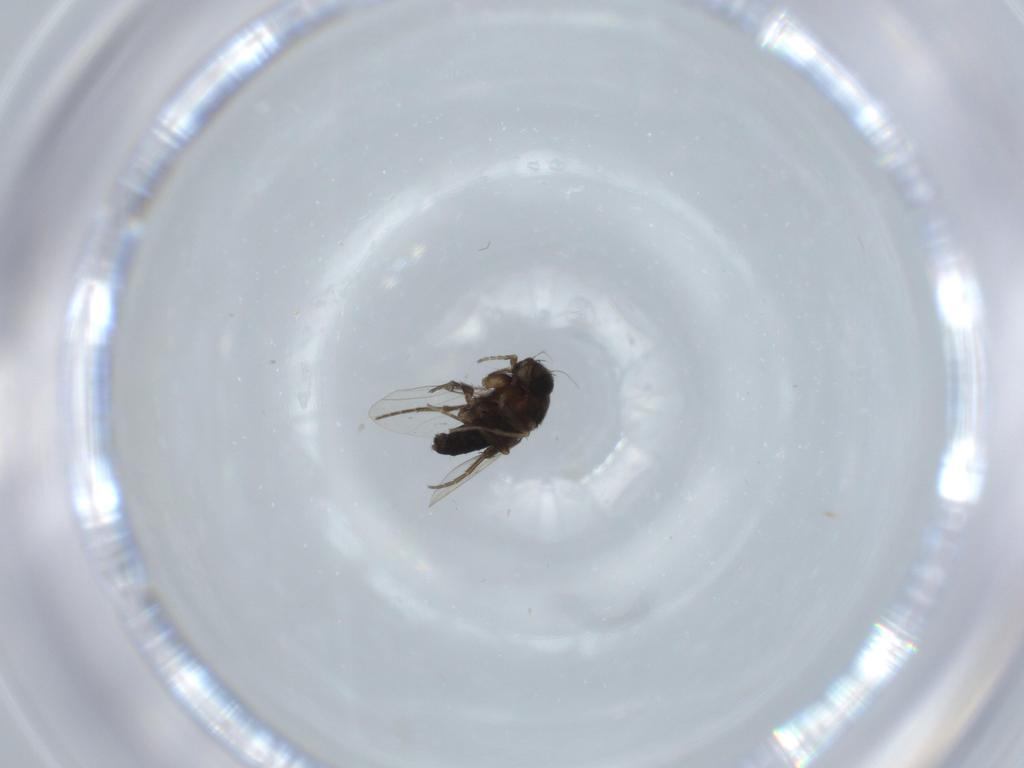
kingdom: Animalia
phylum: Arthropoda
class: Insecta
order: Diptera
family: Phoridae
